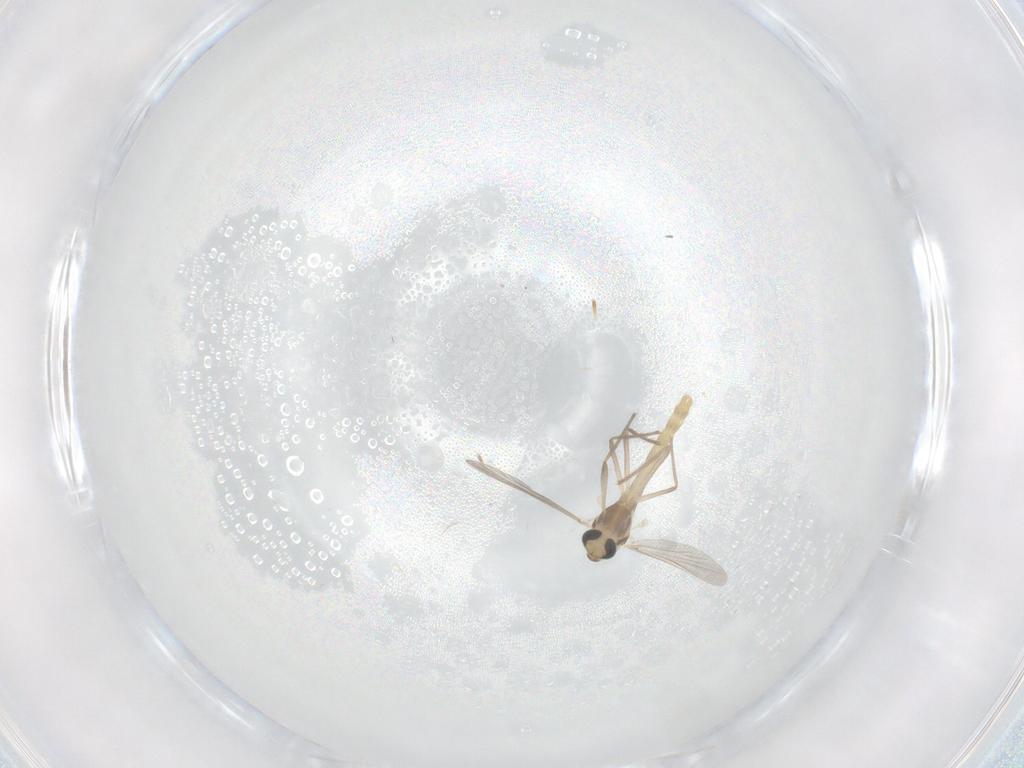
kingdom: Animalia
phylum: Arthropoda
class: Insecta
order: Diptera
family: Chironomidae
